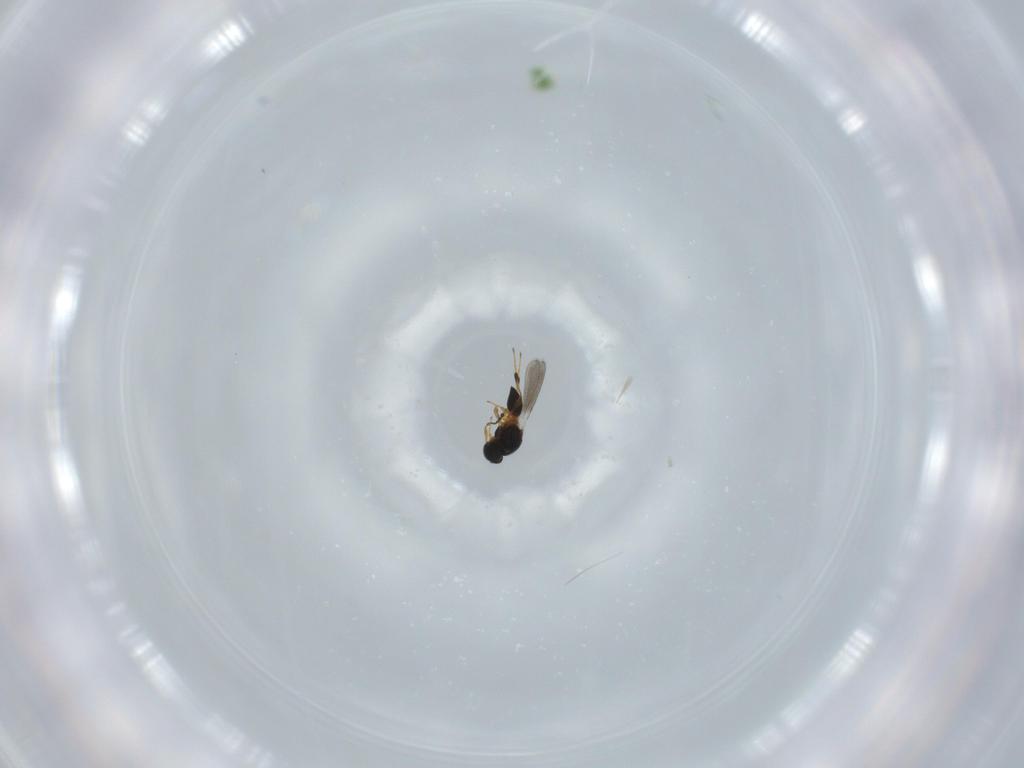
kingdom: Animalia
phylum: Arthropoda
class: Insecta
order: Hymenoptera
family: Platygastridae
